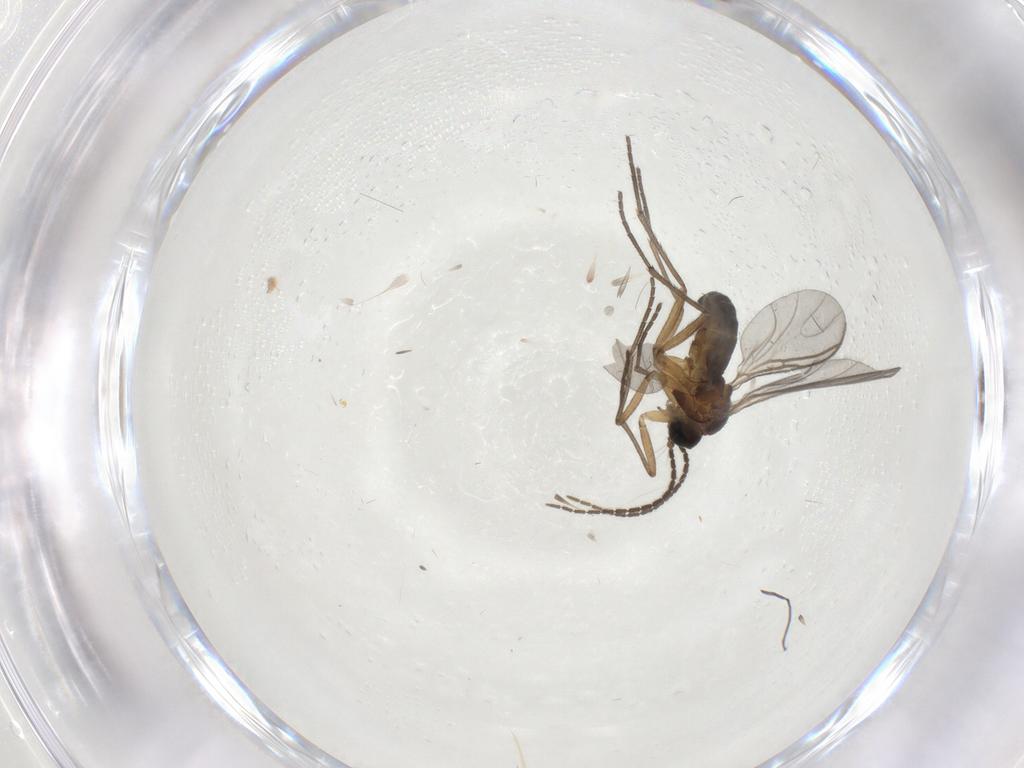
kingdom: Animalia
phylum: Arthropoda
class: Insecta
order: Diptera
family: Sciaridae
